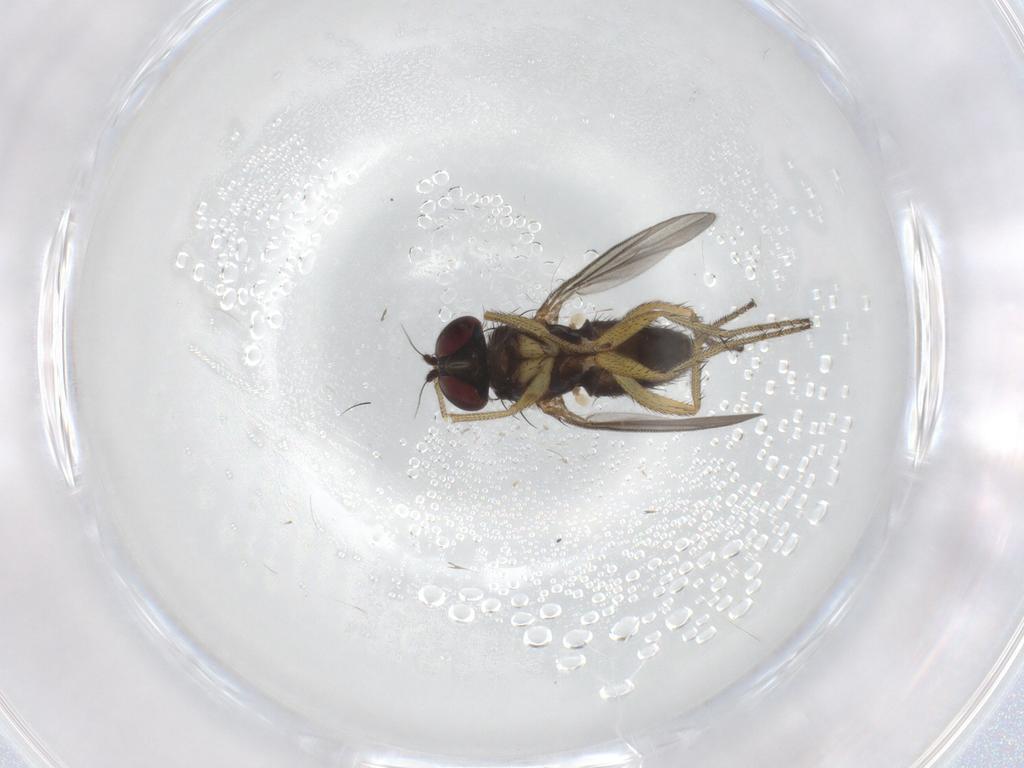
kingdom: Animalia
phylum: Arthropoda
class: Insecta
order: Diptera
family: Dolichopodidae
